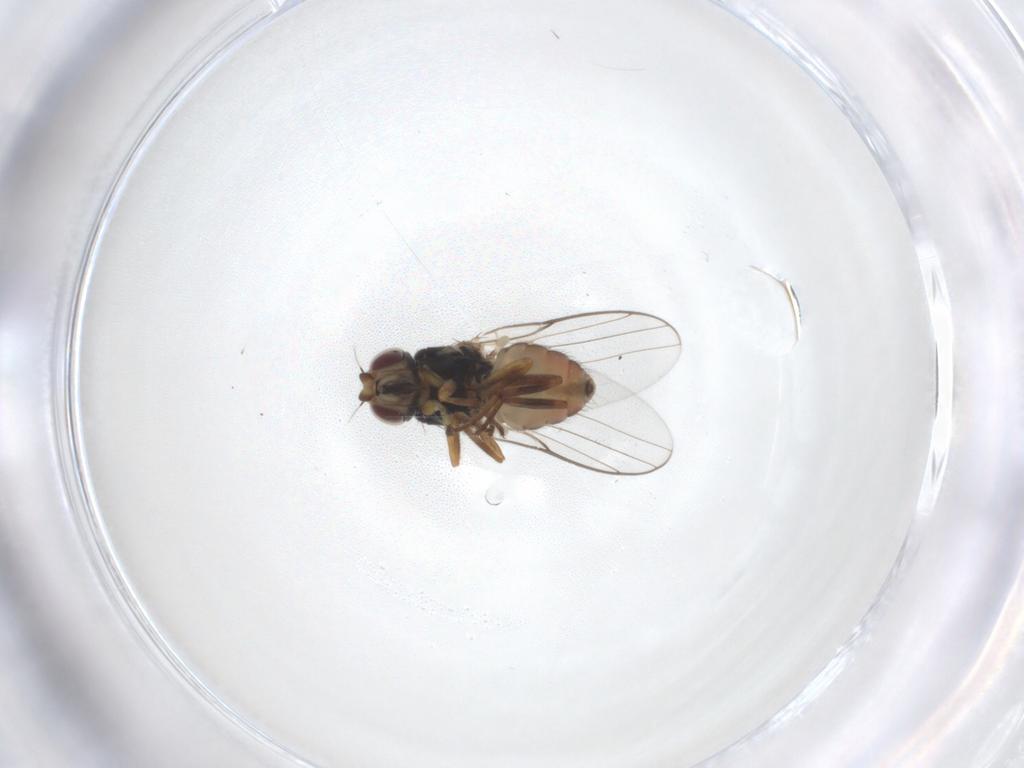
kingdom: Animalia
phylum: Arthropoda
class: Insecta
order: Diptera
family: Chloropidae
